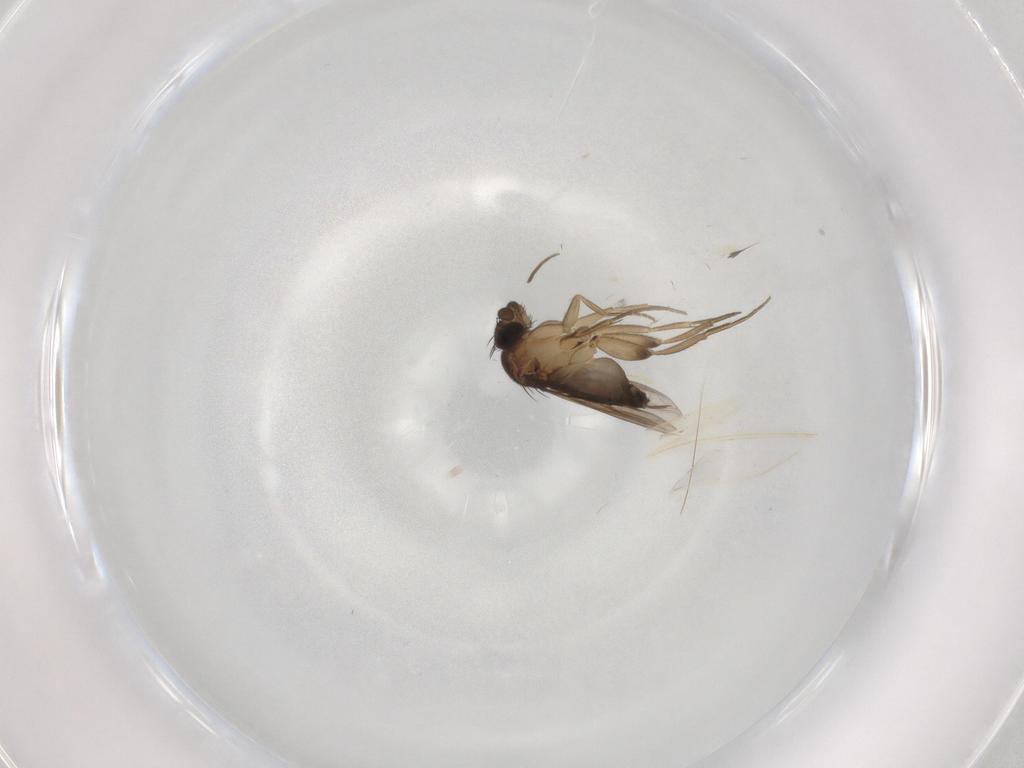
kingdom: Animalia
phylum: Arthropoda
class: Insecta
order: Diptera
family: Phoridae
